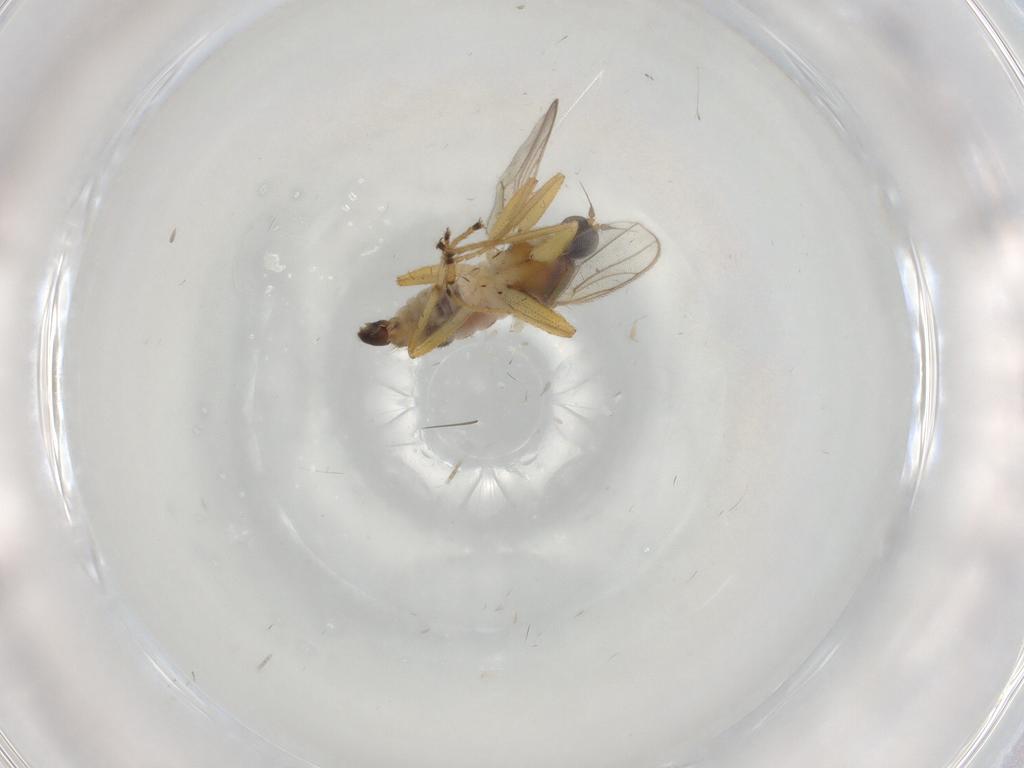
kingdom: Animalia
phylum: Arthropoda
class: Insecta
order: Diptera
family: Hybotidae
